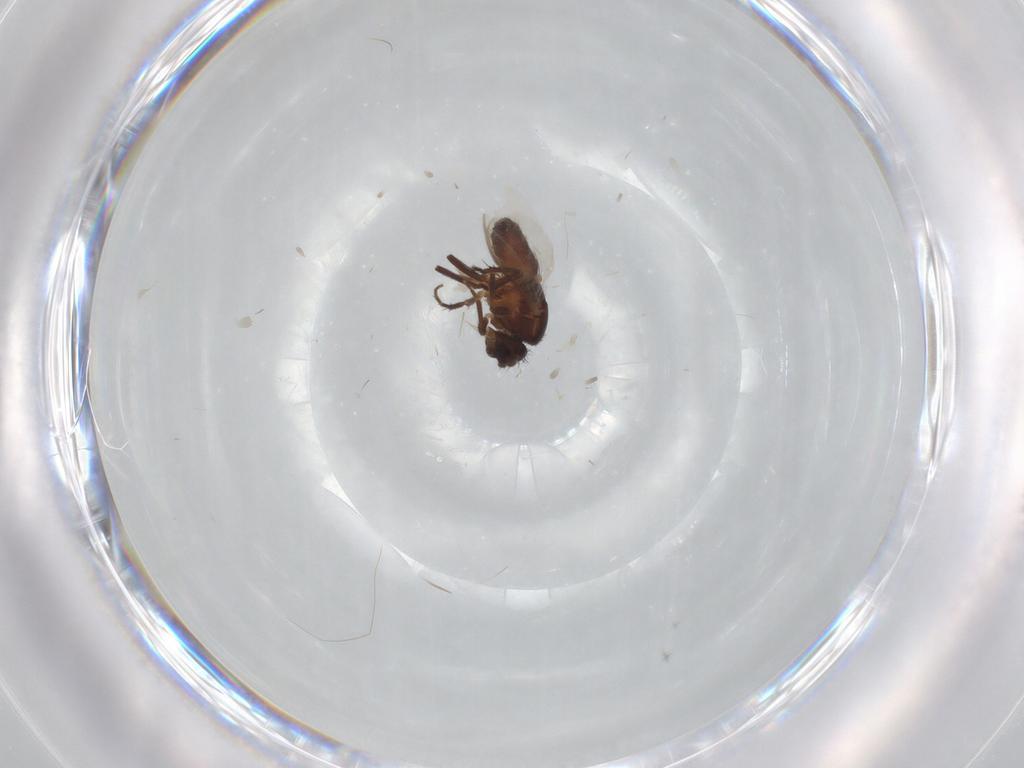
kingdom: Animalia
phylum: Arthropoda
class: Insecta
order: Diptera
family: Sphaeroceridae
